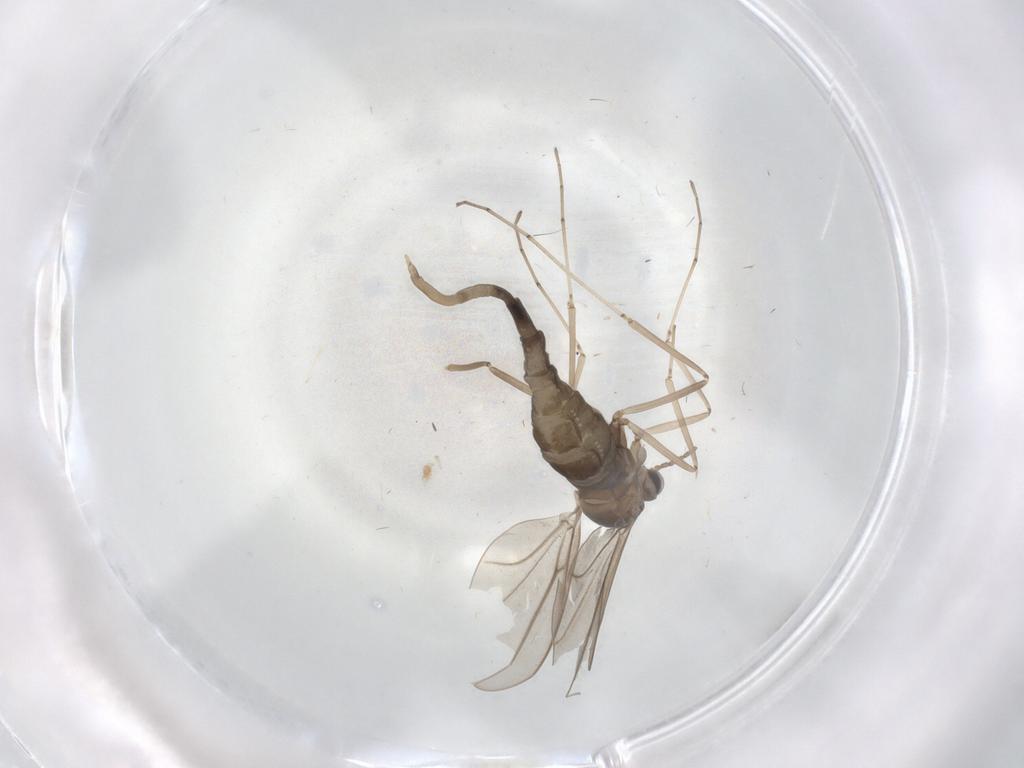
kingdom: Animalia
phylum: Arthropoda
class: Insecta
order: Diptera
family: Cecidomyiidae
